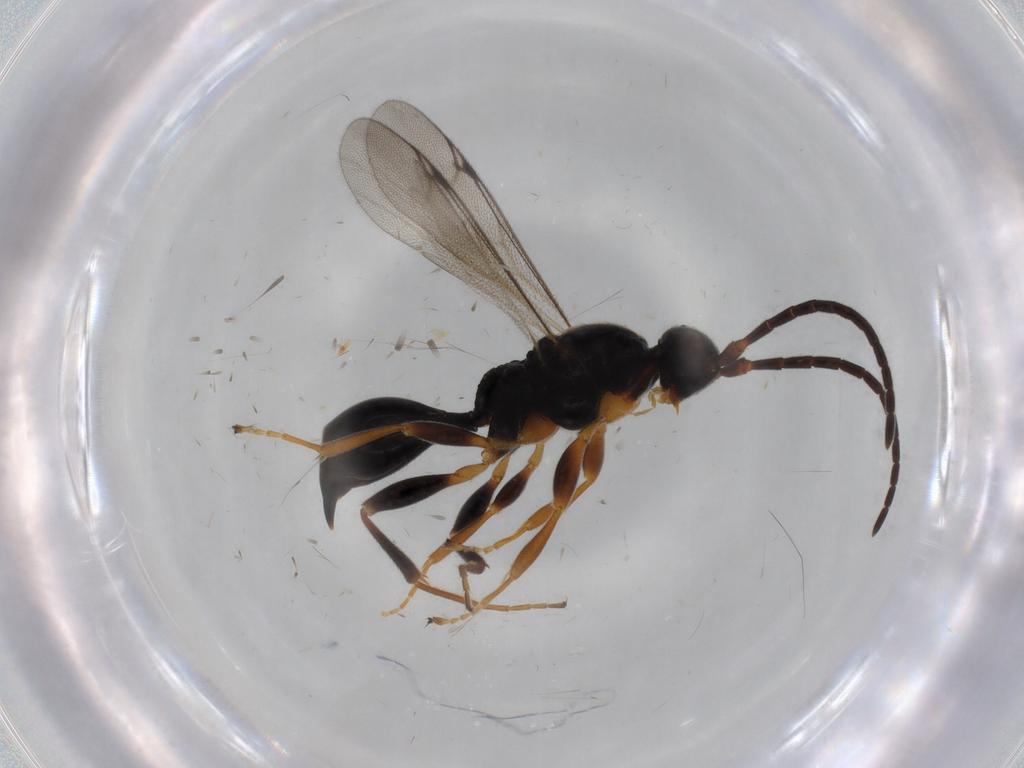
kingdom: Animalia
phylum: Arthropoda
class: Insecta
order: Hymenoptera
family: Proctotrupidae
